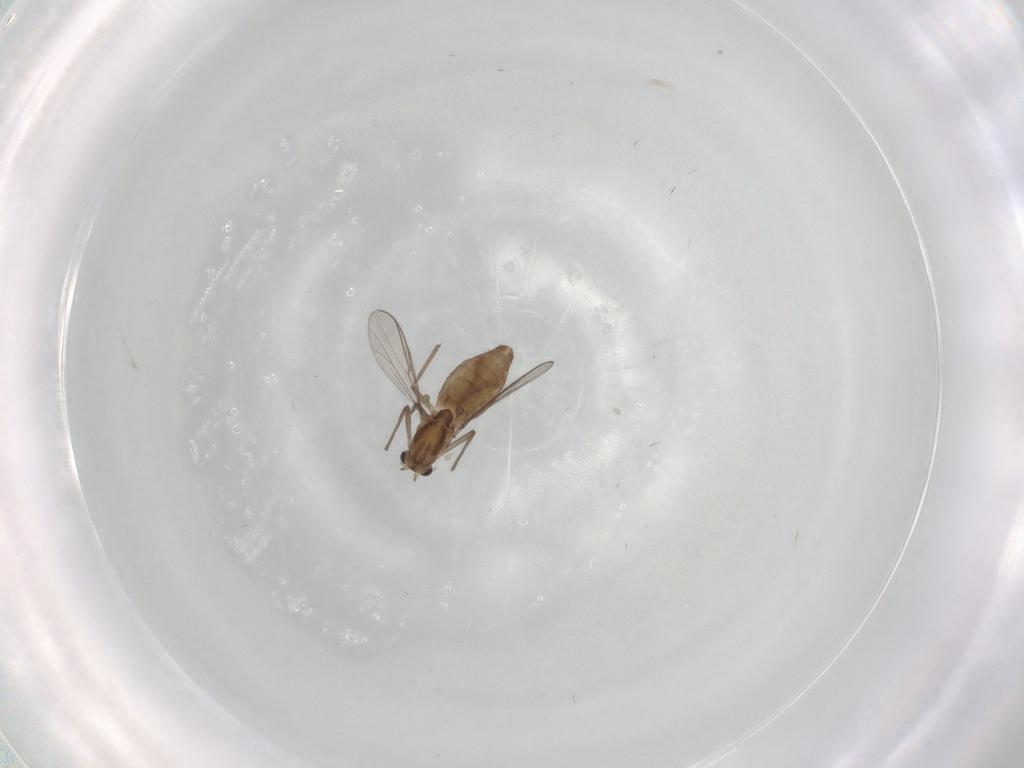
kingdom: Animalia
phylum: Arthropoda
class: Insecta
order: Diptera
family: Chironomidae
